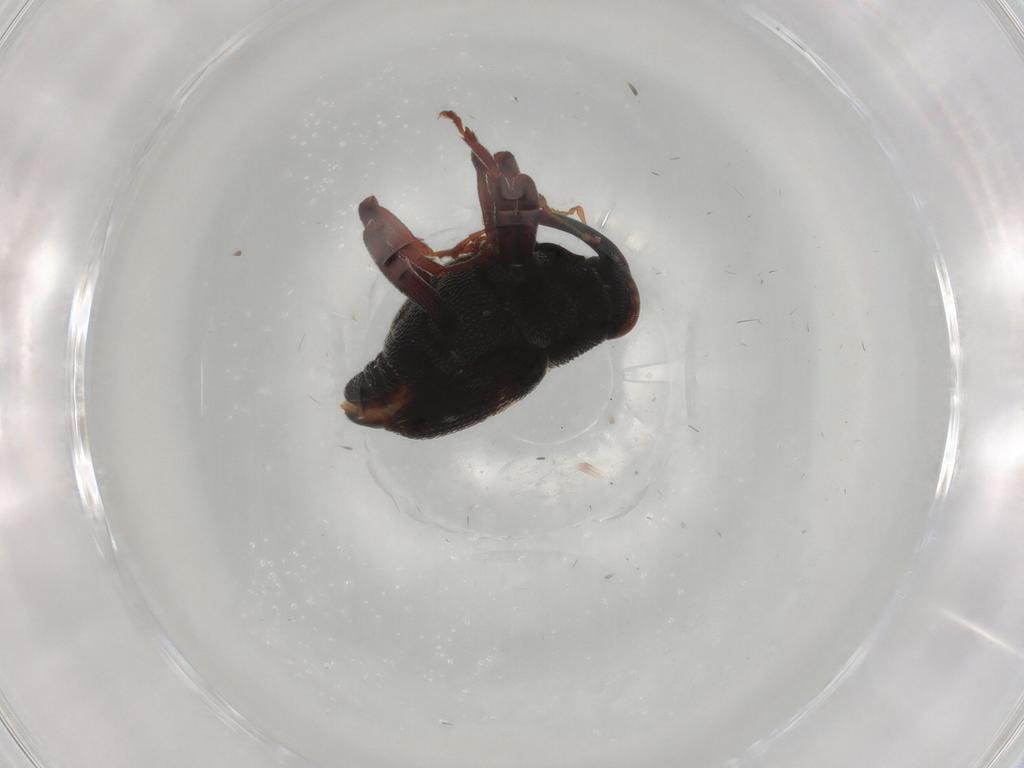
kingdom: Animalia
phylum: Arthropoda
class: Insecta
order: Coleoptera
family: Anthribidae
